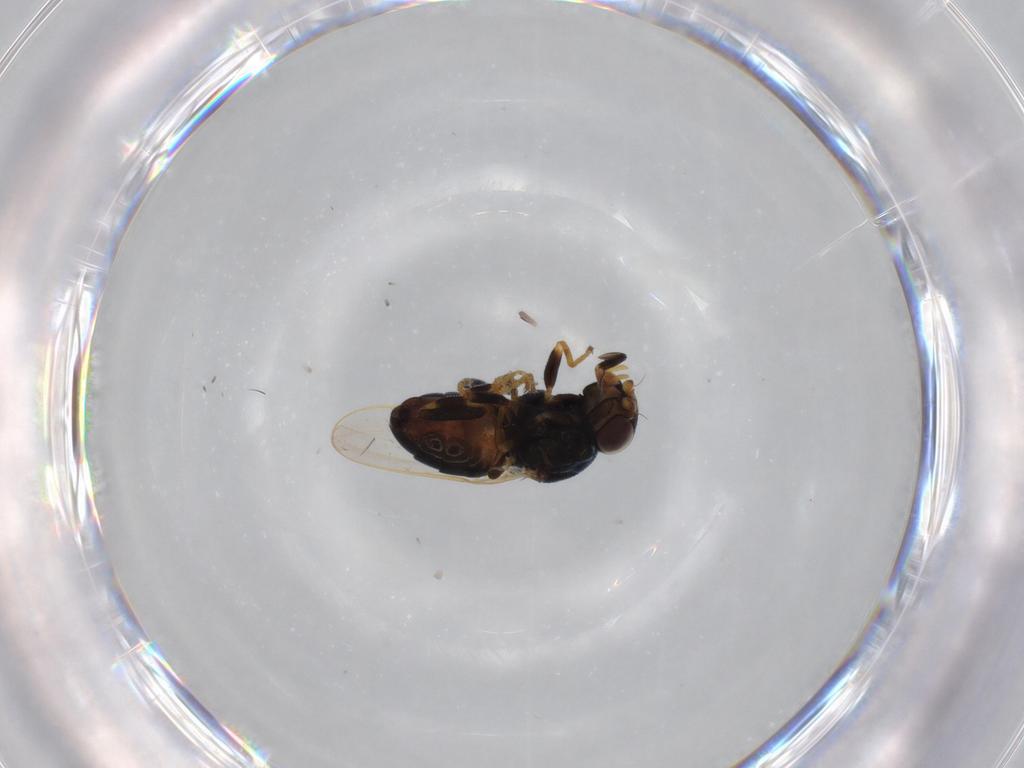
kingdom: Animalia
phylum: Arthropoda
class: Insecta
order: Diptera
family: Chloropidae
